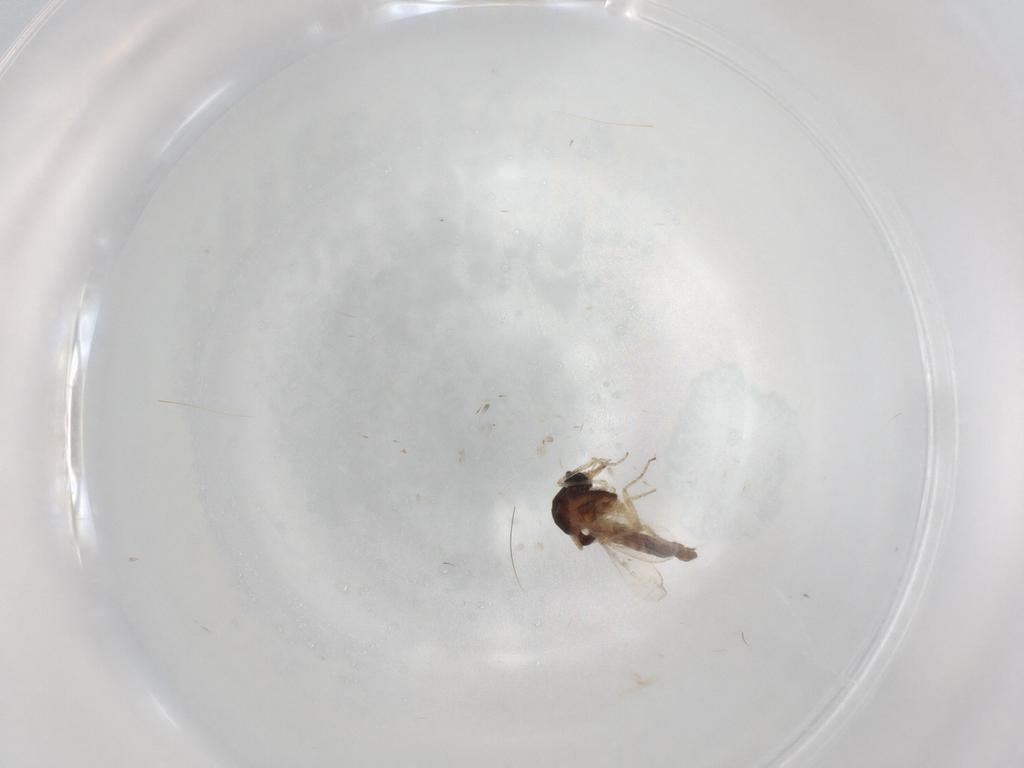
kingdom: Animalia
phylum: Arthropoda
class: Insecta
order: Diptera
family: Ceratopogonidae
